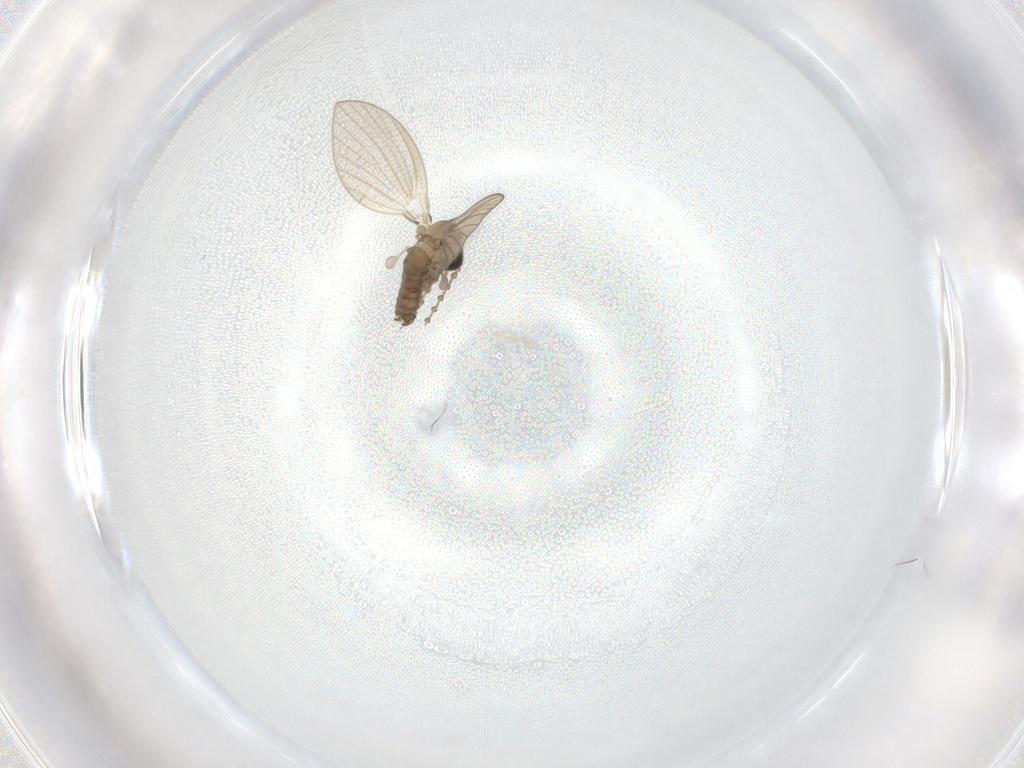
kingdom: Animalia
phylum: Arthropoda
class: Insecta
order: Diptera
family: Psychodidae
